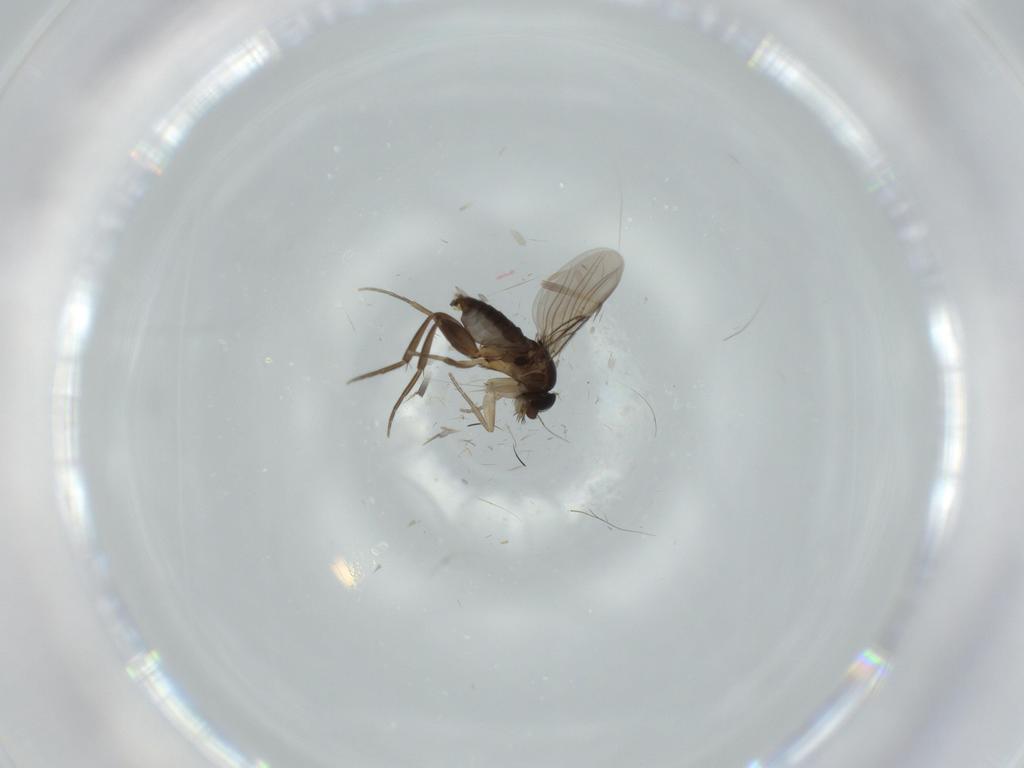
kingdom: Animalia
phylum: Arthropoda
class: Insecta
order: Diptera
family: Phoridae
